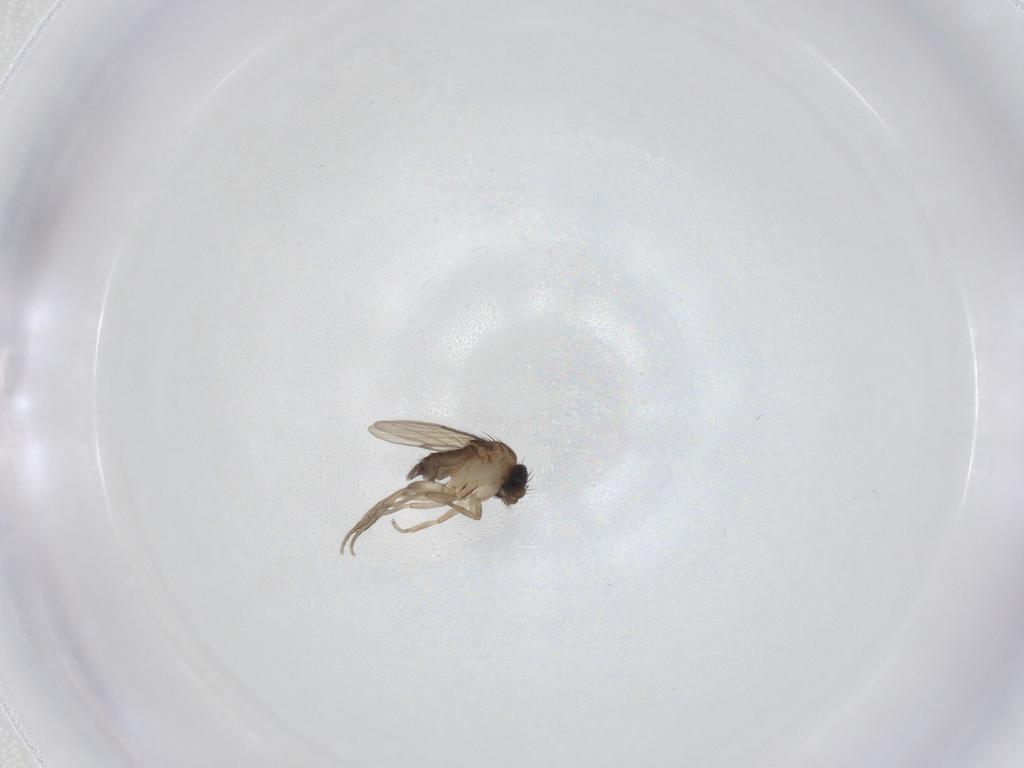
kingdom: Animalia
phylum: Arthropoda
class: Insecta
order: Diptera
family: Phoridae
